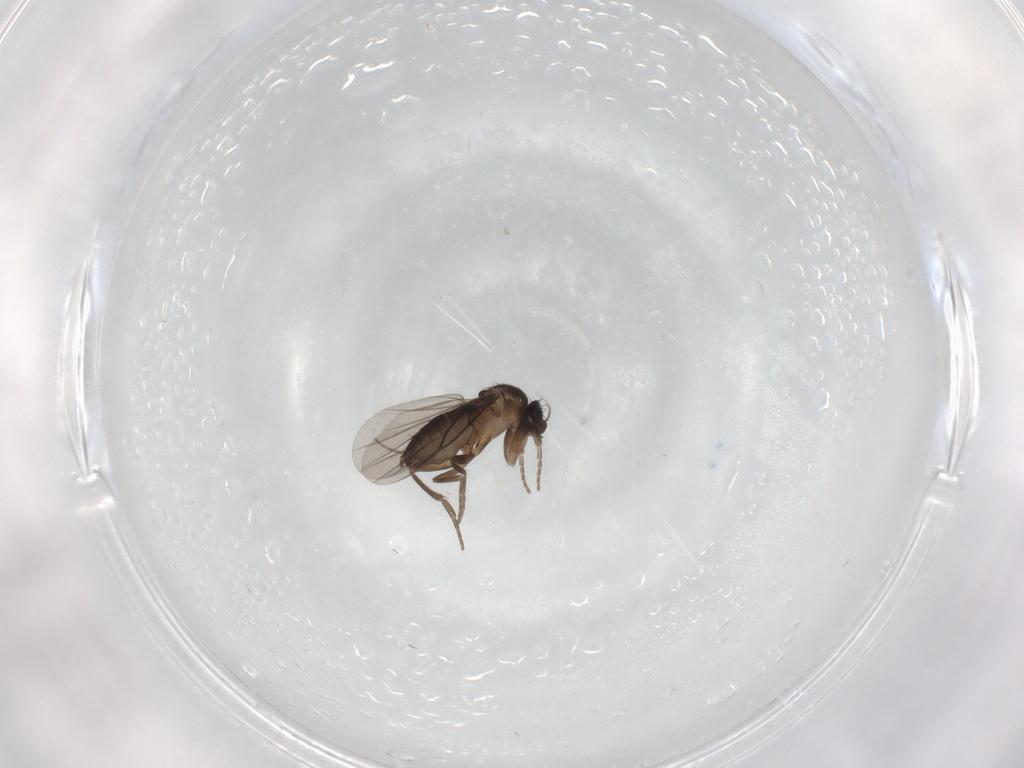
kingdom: Animalia
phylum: Arthropoda
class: Insecta
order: Diptera
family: Phoridae
